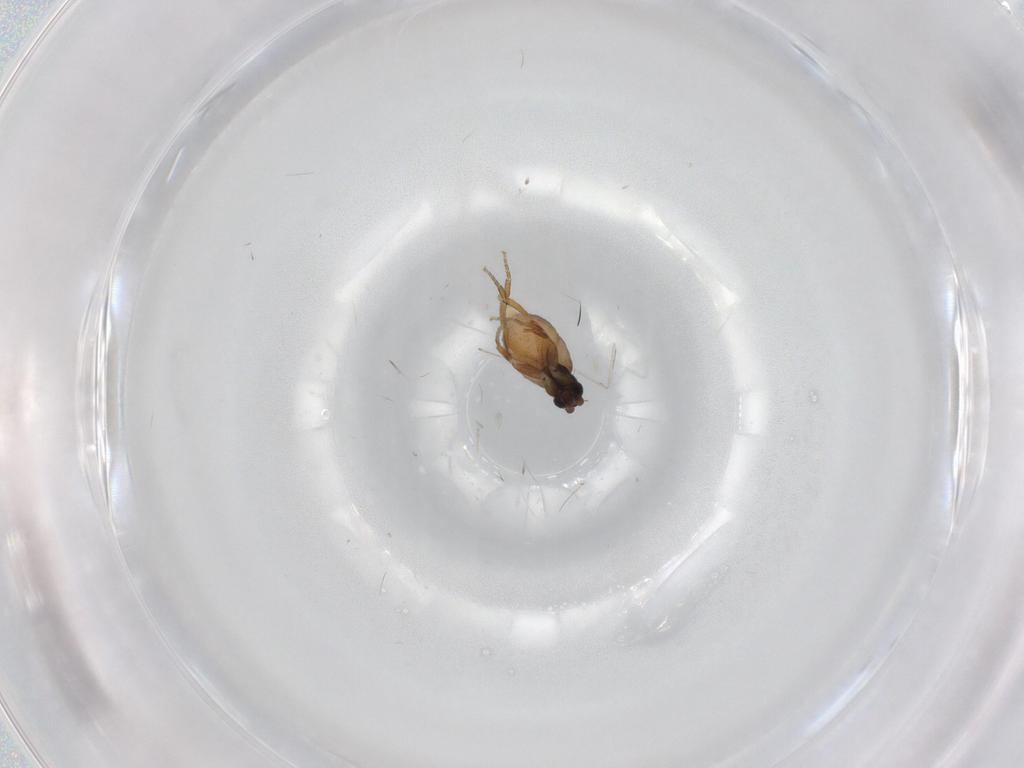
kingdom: Animalia
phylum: Arthropoda
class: Insecta
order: Diptera
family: Phoridae
